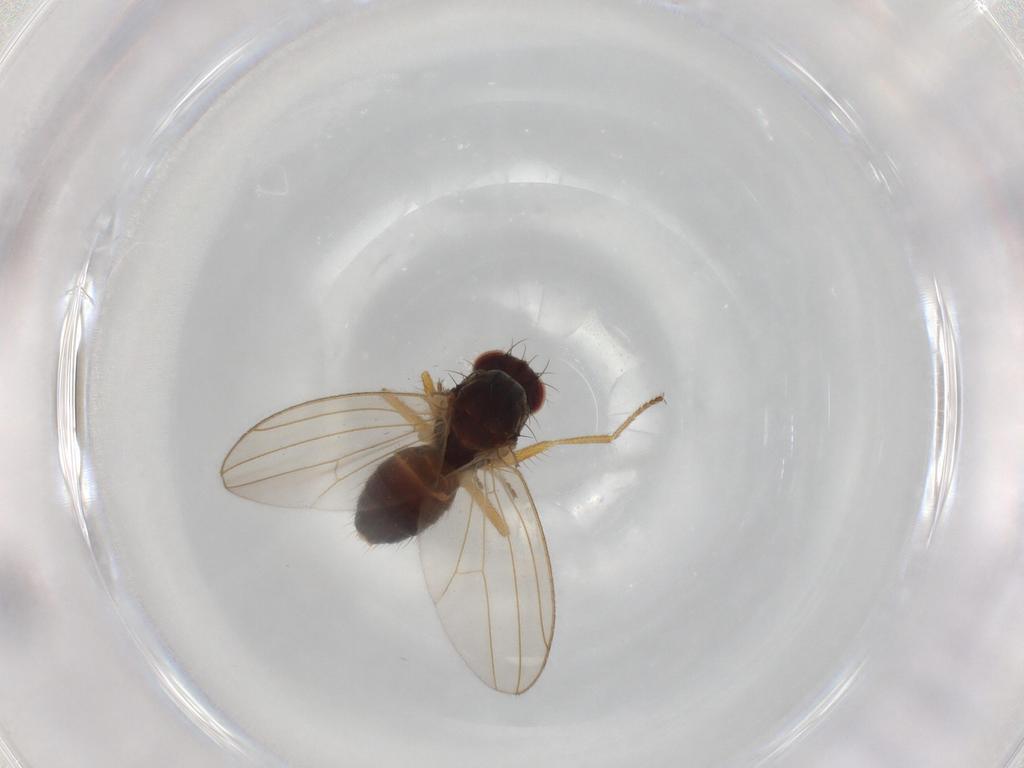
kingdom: Animalia
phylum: Arthropoda
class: Insecta
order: Diptera
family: Drosophilidae
